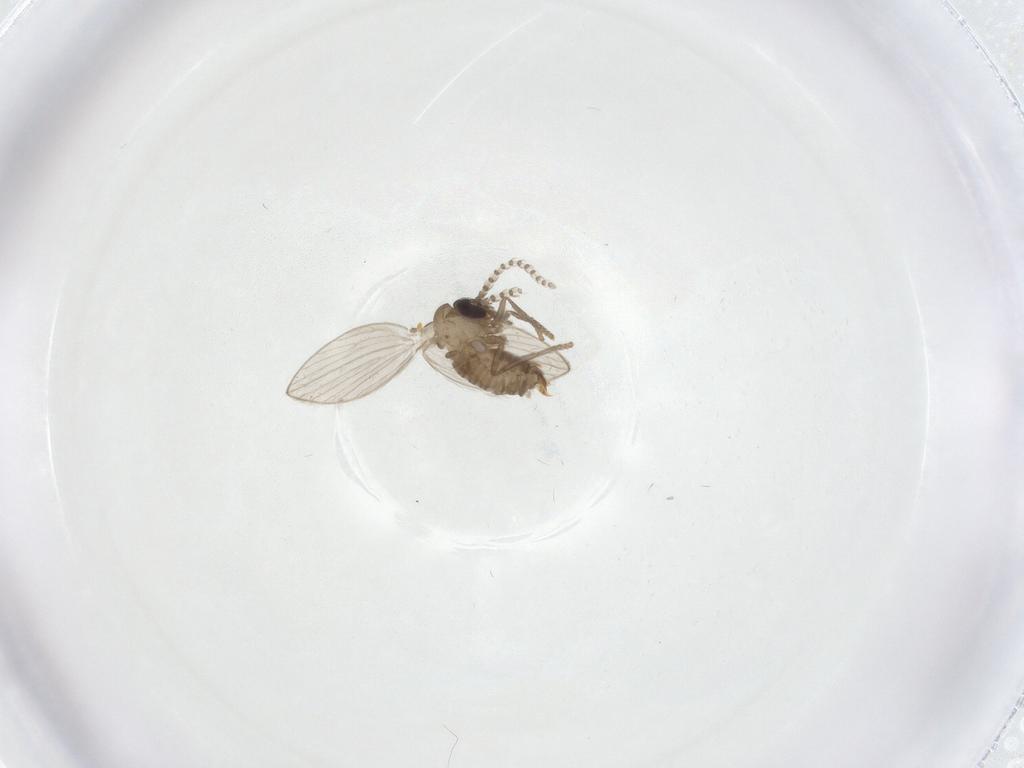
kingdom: Animalia
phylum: Arthropoda
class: Insecta
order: Diptera
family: Psychodidae
